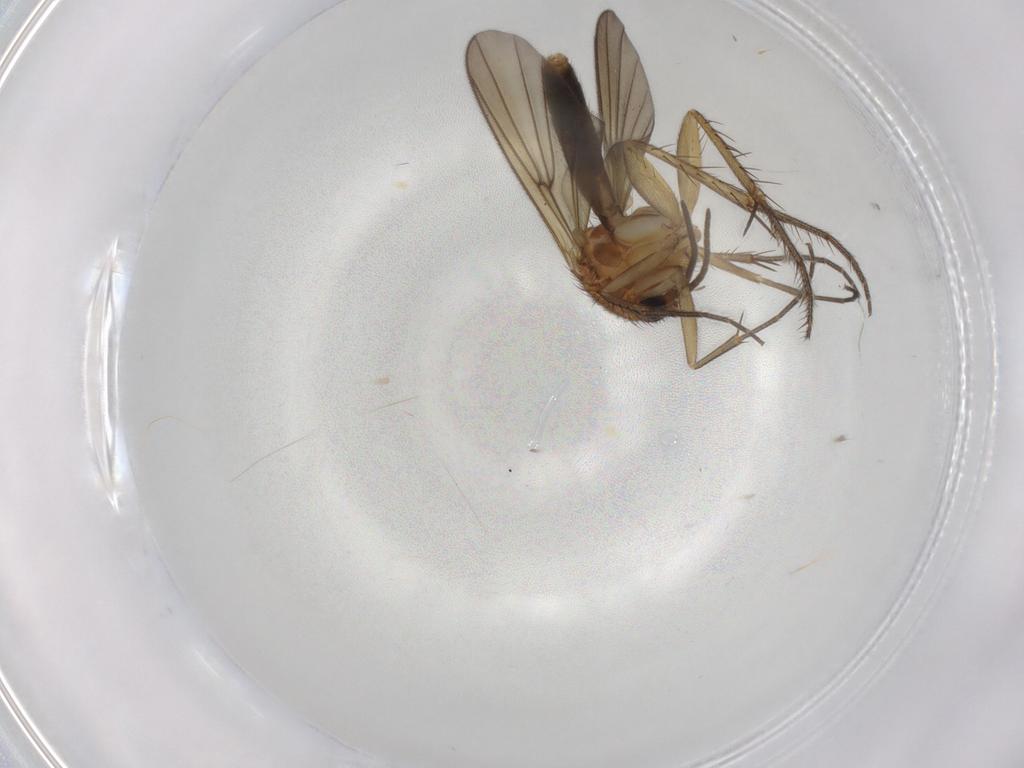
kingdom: Animalia
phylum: Arthropoda
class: Insecta
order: Diptera
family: Chironomidae
